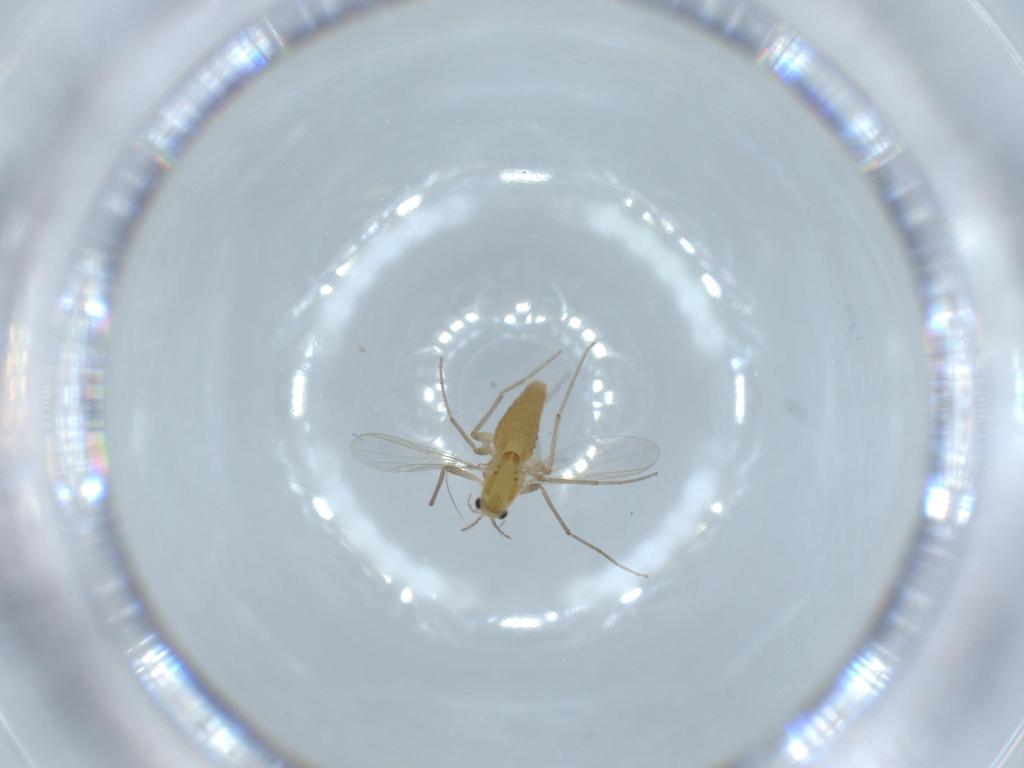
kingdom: Animalia
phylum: Arthropoda
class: Insecta
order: Diptera
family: Chironomidae
